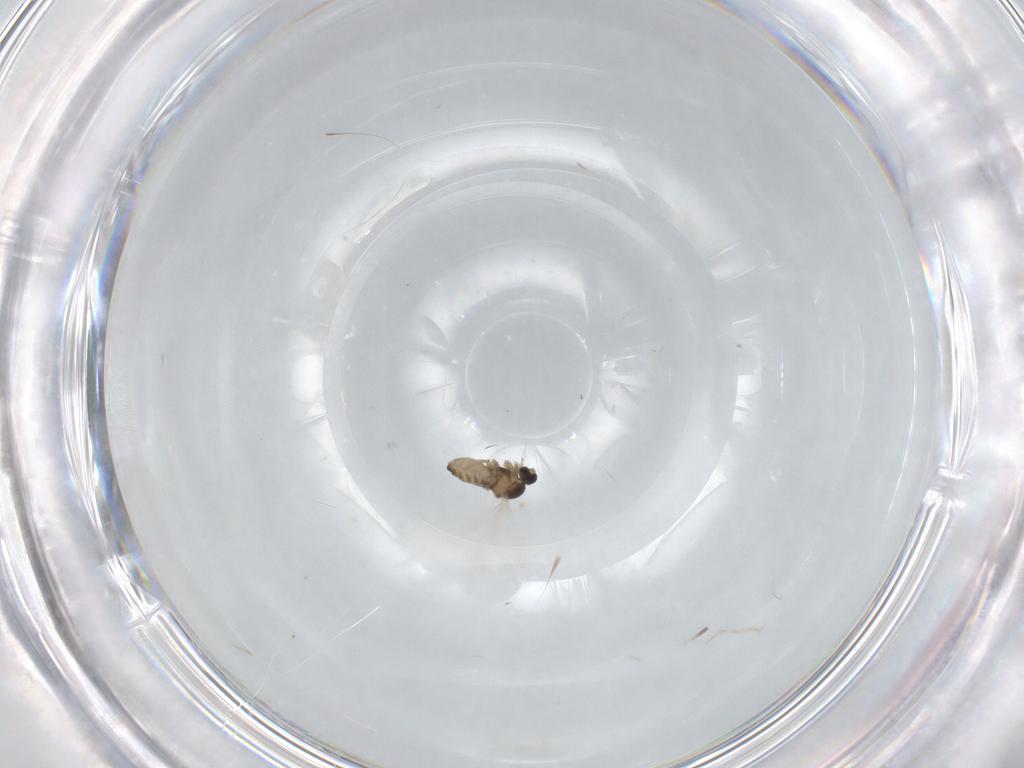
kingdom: Animalia
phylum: Arthropoda
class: Insecta
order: Diptera
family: Cecidomyiidae
